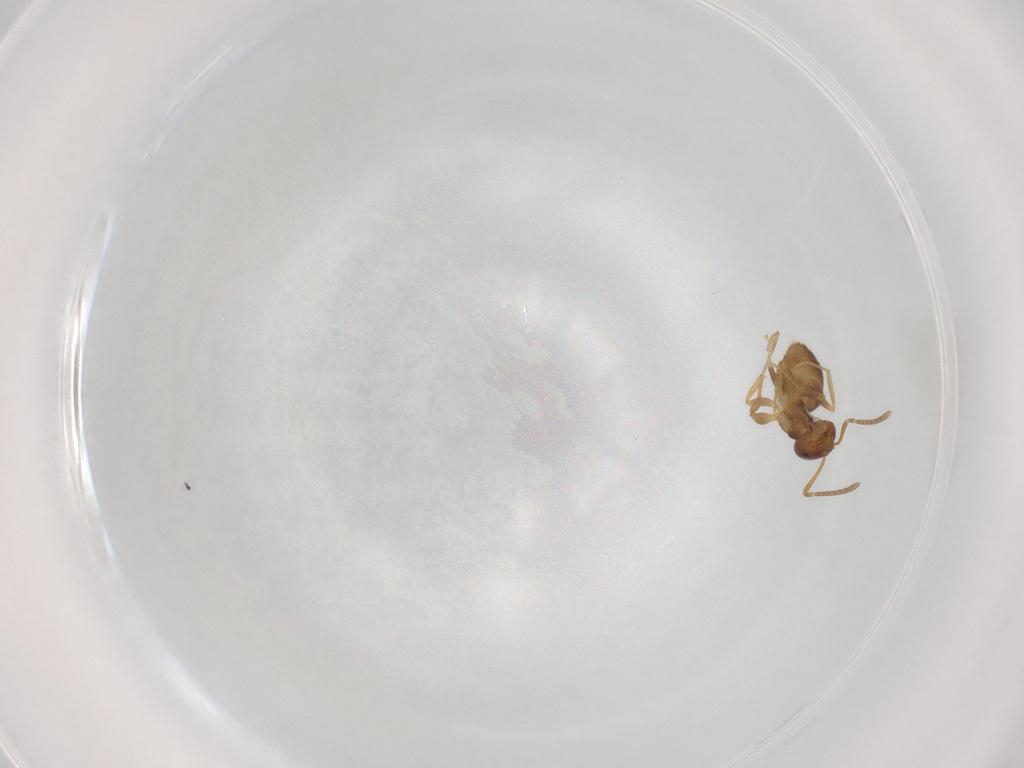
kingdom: Animalia
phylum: Arthropoda
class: Insecta
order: Hymenoptera
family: Formicidae
